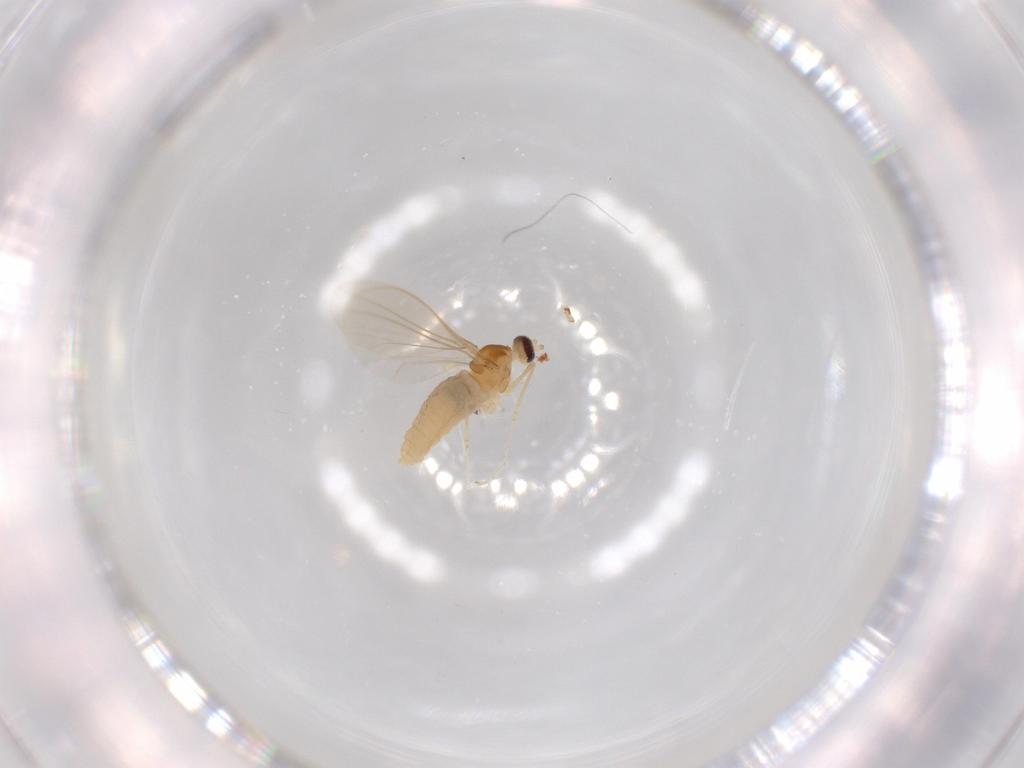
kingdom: Animalia
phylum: Arthropoda
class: Insecta
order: Diptera
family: Cecidomyiidae
